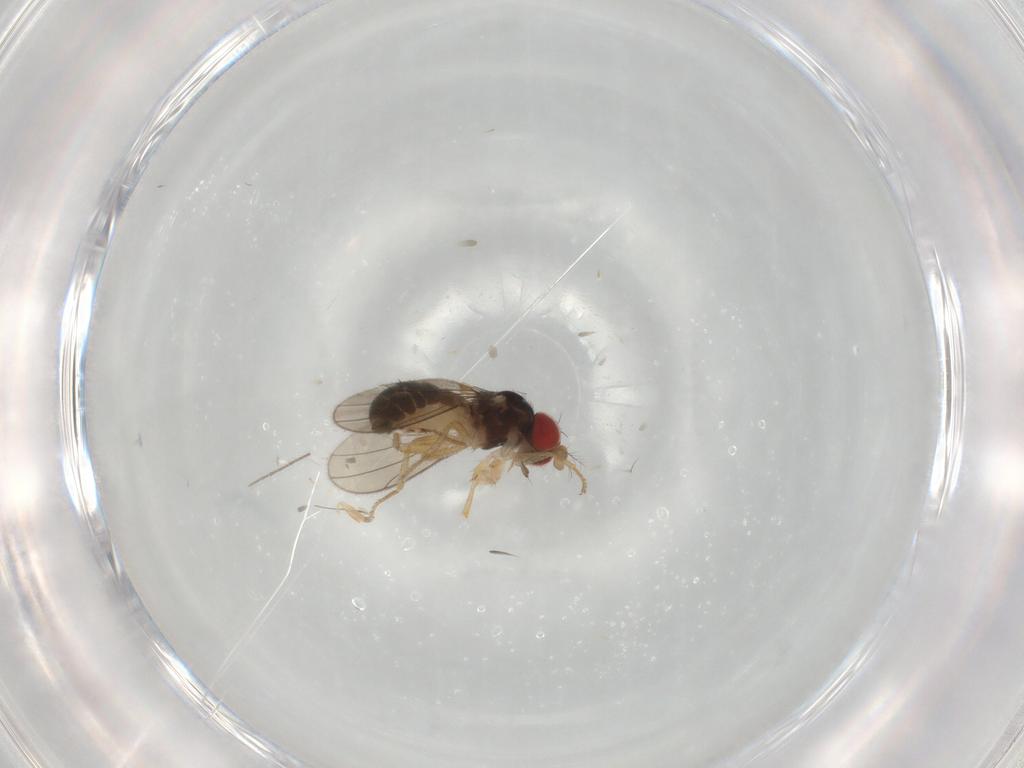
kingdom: Animalia
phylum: Arthropoda
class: Insecta
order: Diptera
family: Drosophilidae
